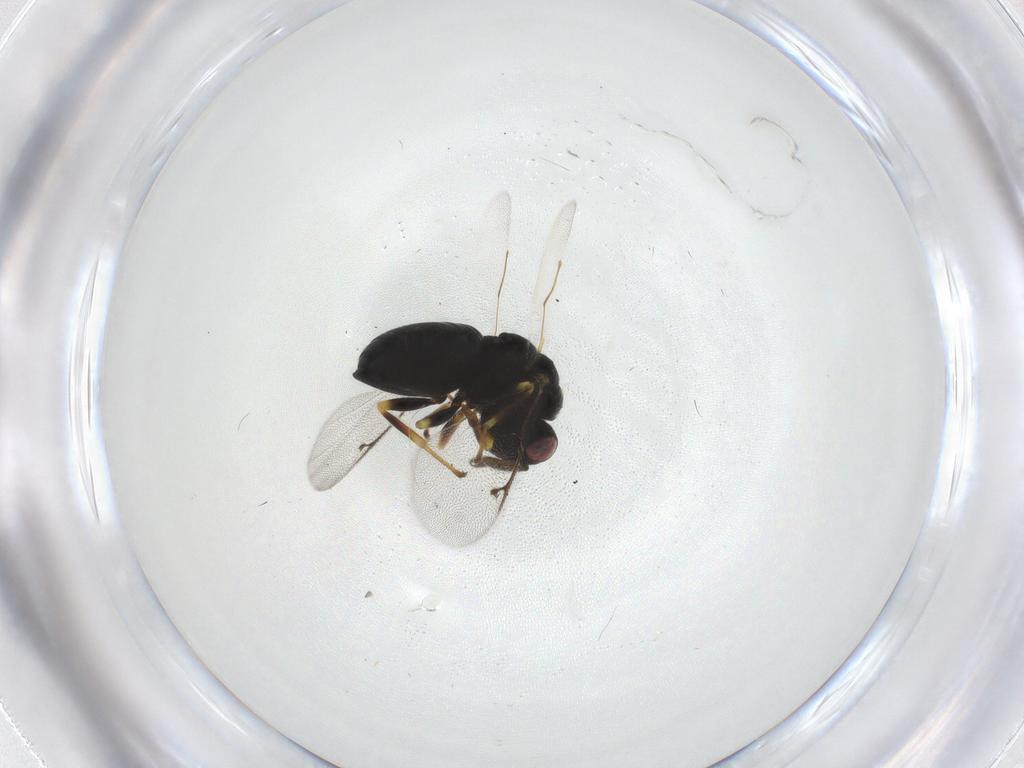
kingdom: Animalia
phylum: Arthropoda
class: Insecta
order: Hymenoptera
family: Eurytomidae
